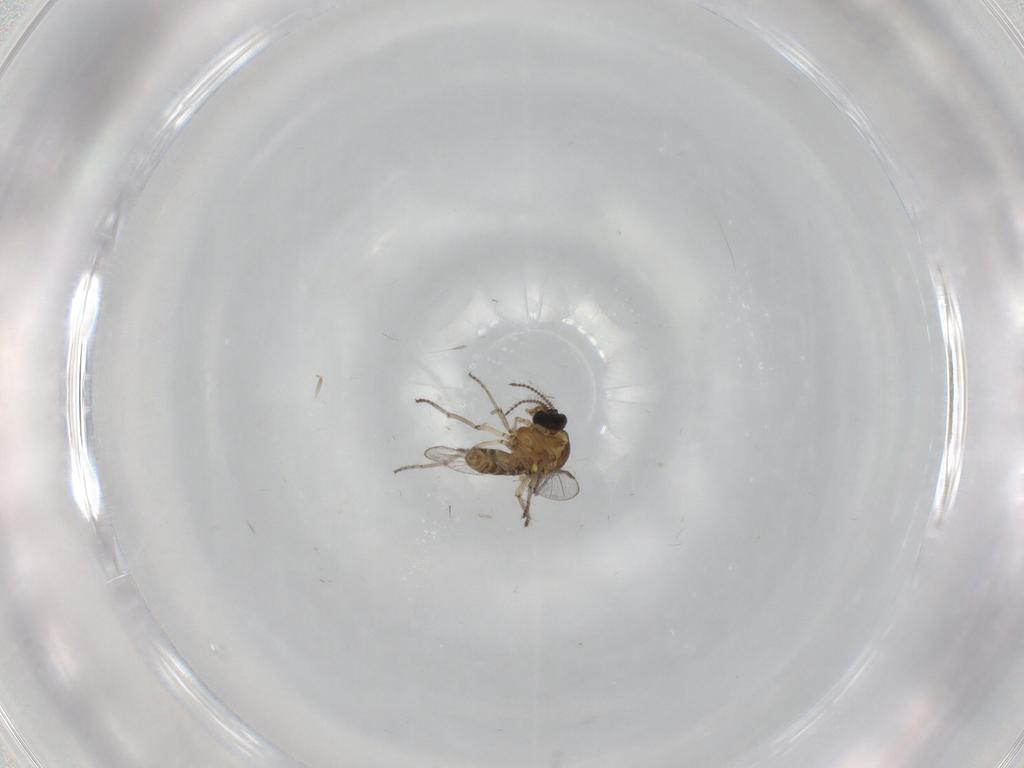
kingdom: Animalia
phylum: Arthropoda
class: Insecta
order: Diptera
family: Ceratopogonidae
